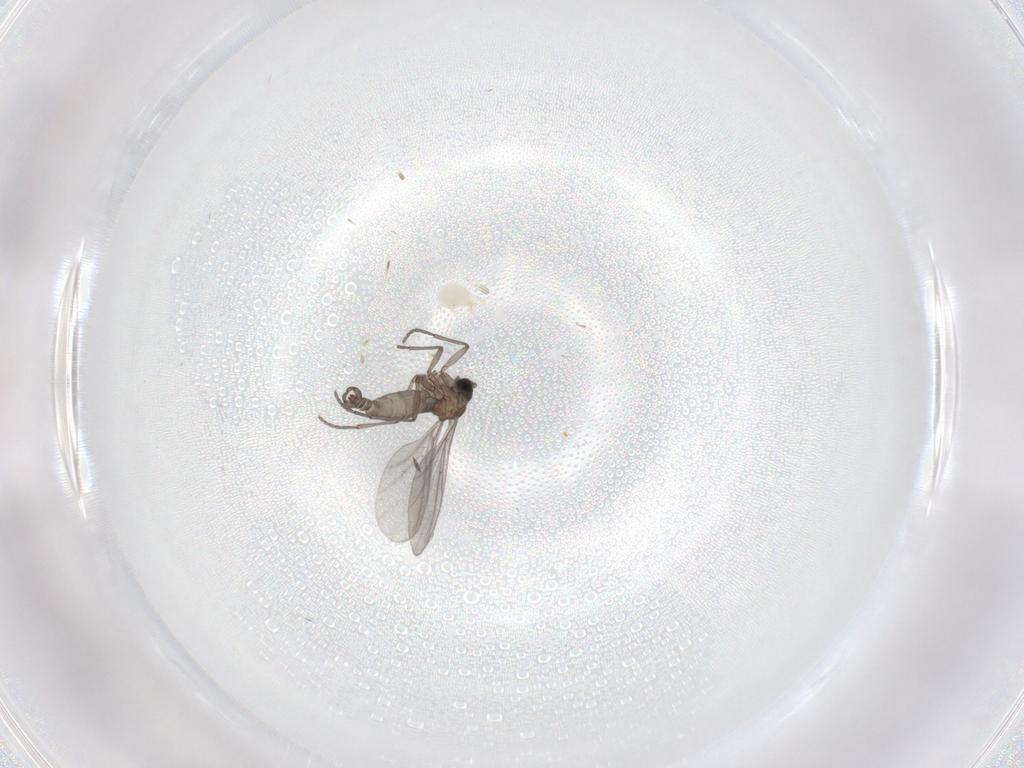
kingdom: Animalia
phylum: Arthropoda
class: Insecta
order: Diptera
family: Sciaridae
